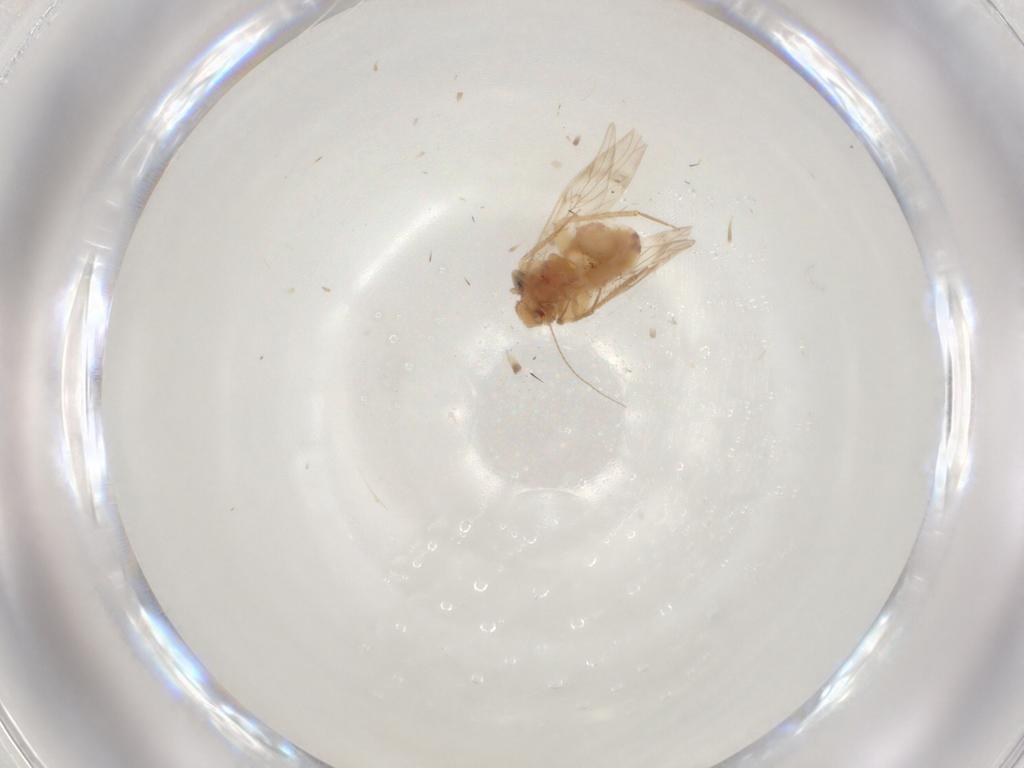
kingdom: Animalia
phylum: Arthropoda
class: Insecta
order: Psocodea
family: Lepidopsocidae
